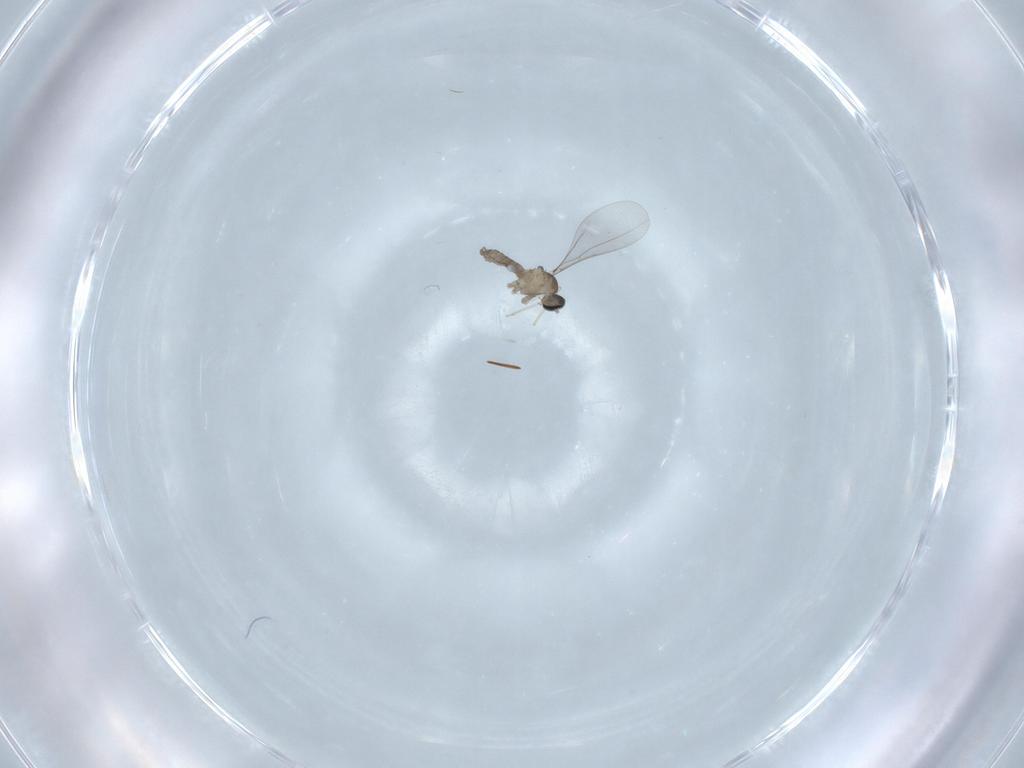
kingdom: Animalia
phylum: Arthropoda
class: Insecta
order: Diptera
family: Cecidomyiidae
